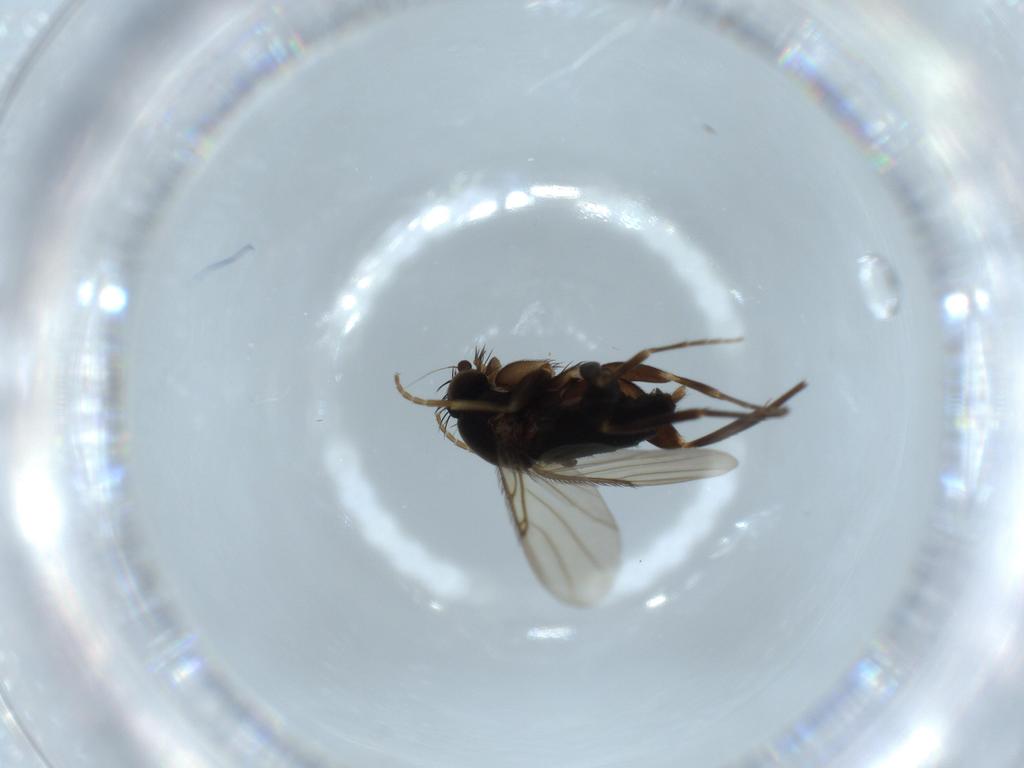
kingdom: Animalia
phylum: Arthropoda
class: Insecta
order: Diptera
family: Phoridae
